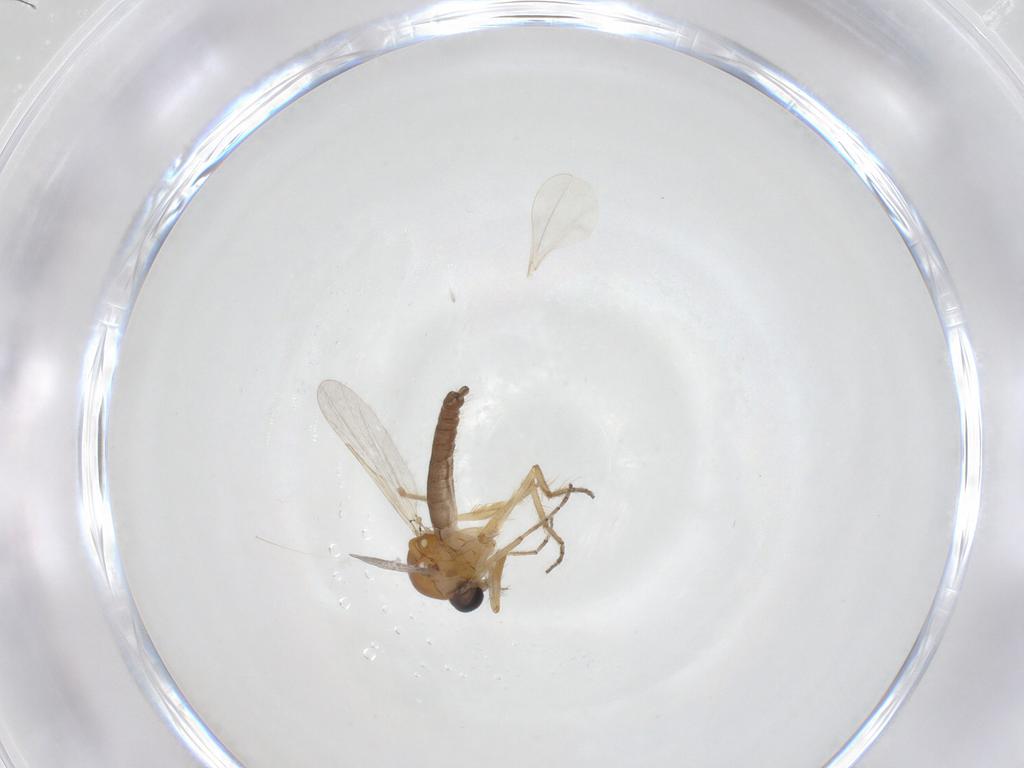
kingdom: Animalia
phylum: Arthropoda
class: Insecta
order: Diptera
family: Ceratopogonidae
